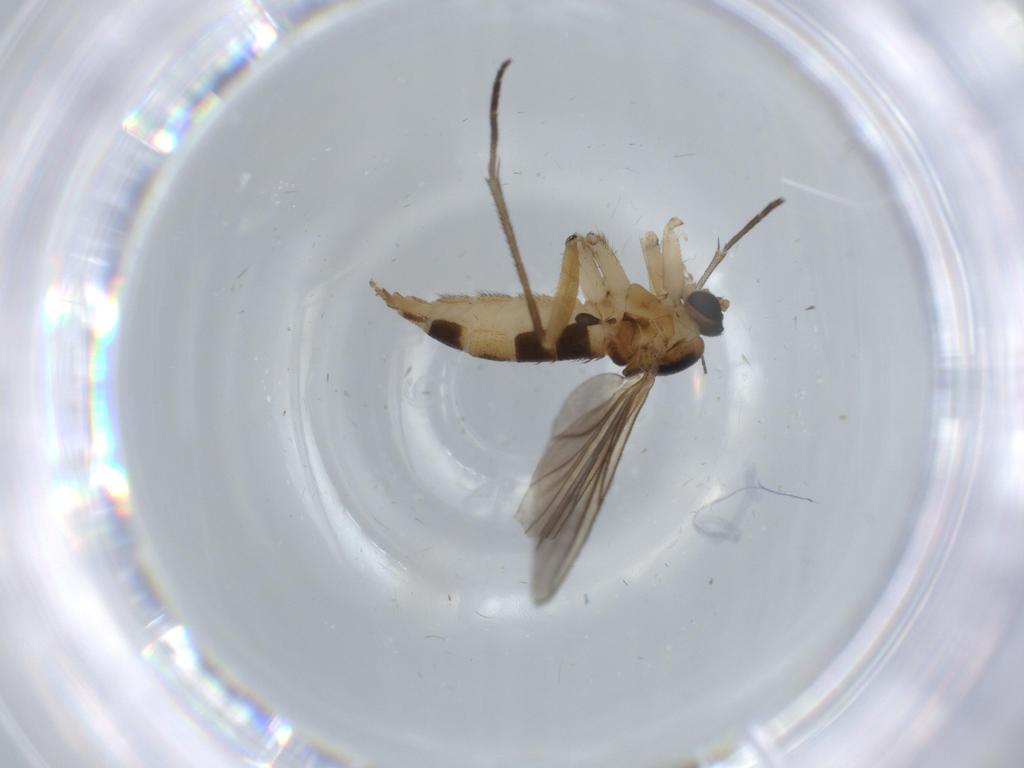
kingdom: Animalia
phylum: Arthropoda
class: Insecta
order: Diptera
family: Sciaridae
